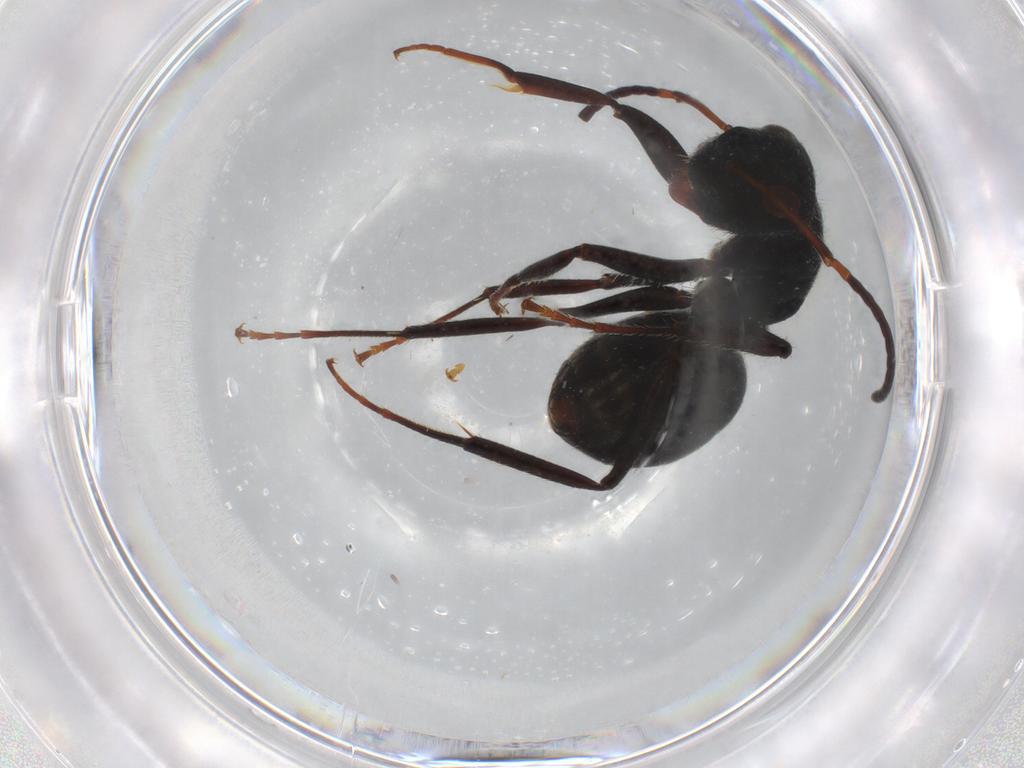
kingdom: Animalia
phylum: Arthropoda
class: Insecta
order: Hymenoptera
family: Formicidae
